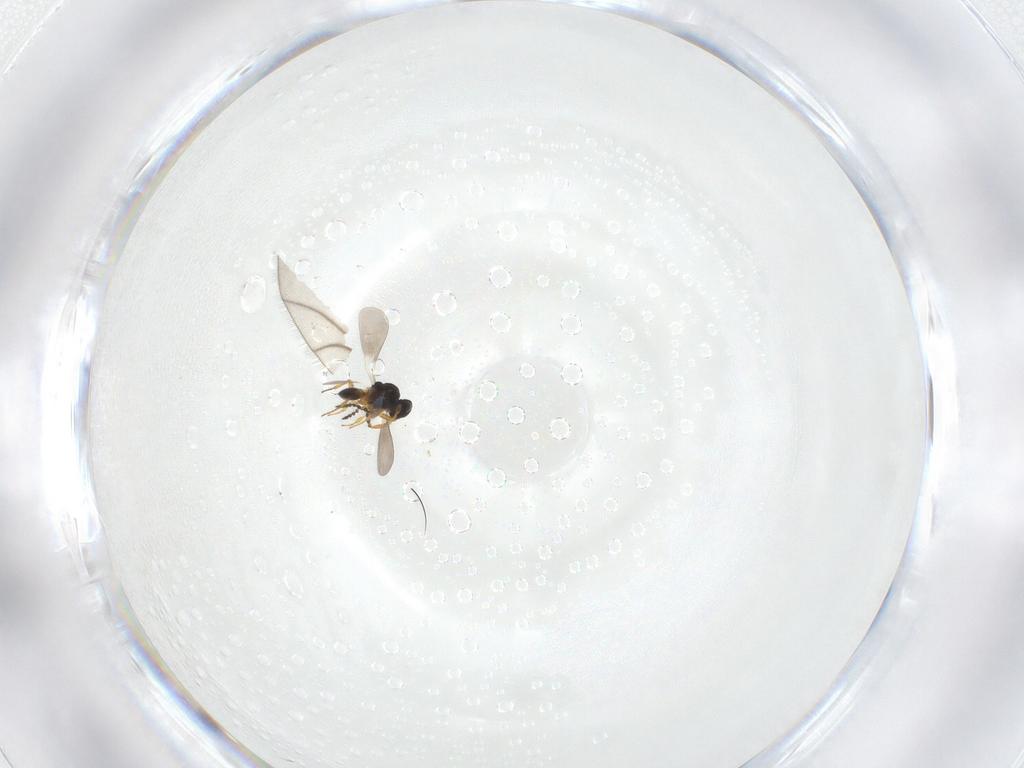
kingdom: Animalia
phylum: Arthropoda
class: Insecta
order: Hymenoptera
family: Platygastridae
